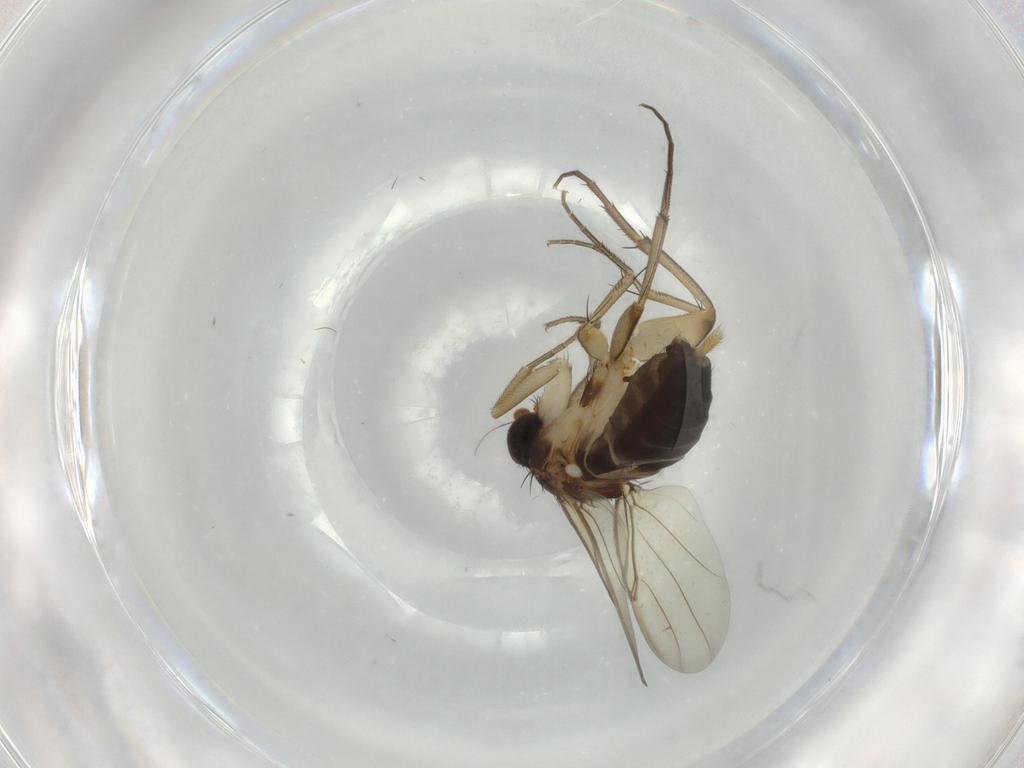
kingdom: Animalia
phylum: Arthropoda
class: Insecta
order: Diptera
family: Phoridae
